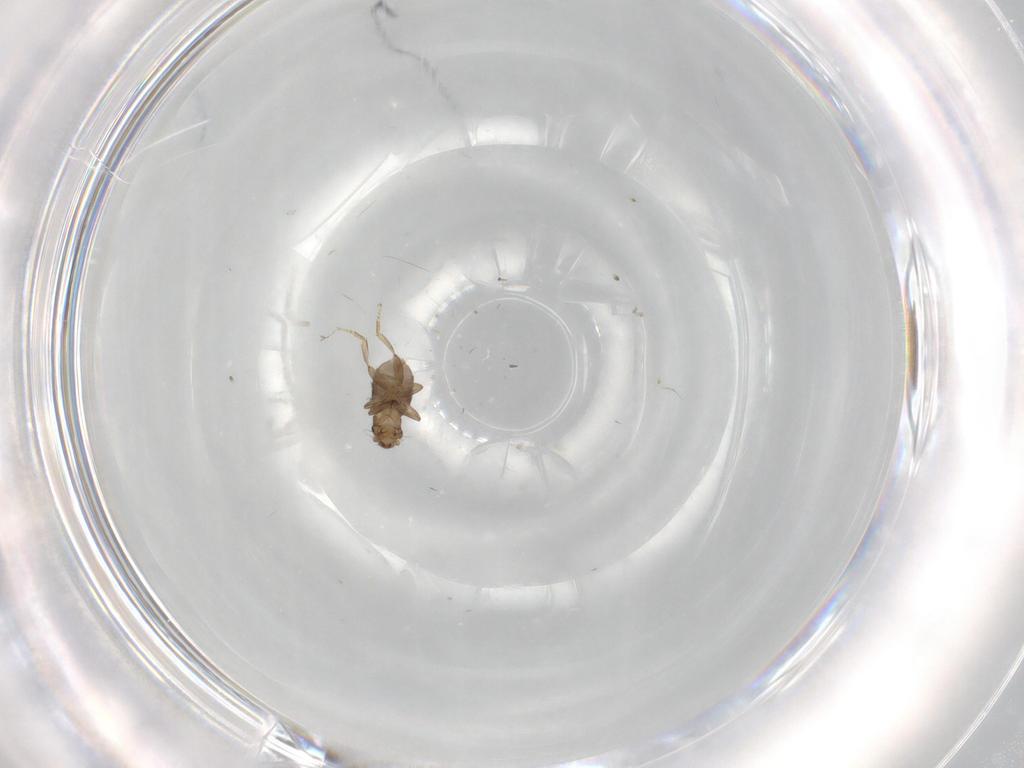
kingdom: Animalia
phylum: Arthropoda
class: Insecta
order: Diptera
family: Phoridae
